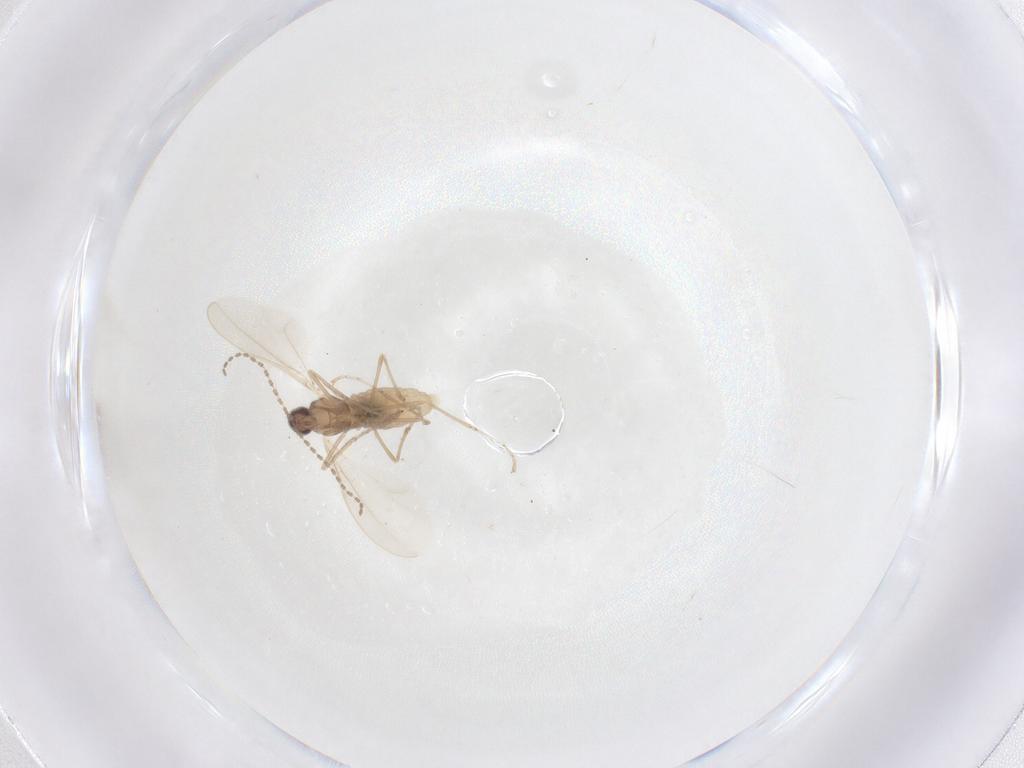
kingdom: Animalia
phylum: Arthropoda
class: Insecta
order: Diptera
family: Cecidomyiidae
